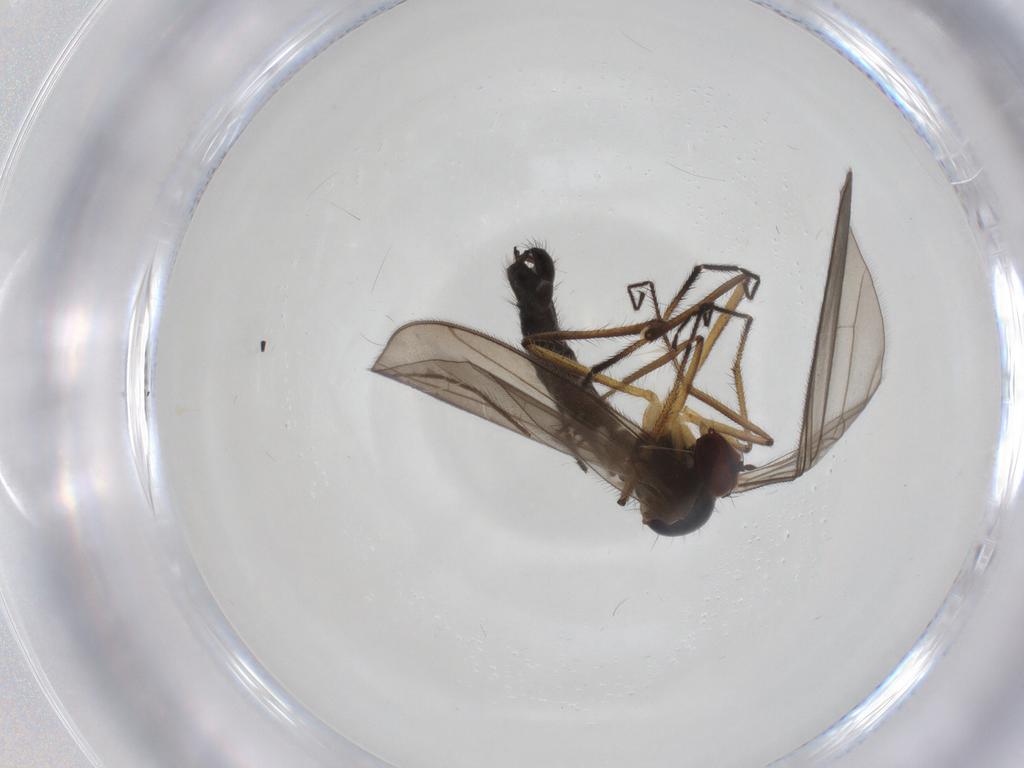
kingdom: Animalia
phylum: Arthropoda
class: Insecta
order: Diptera
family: Hybotidae
